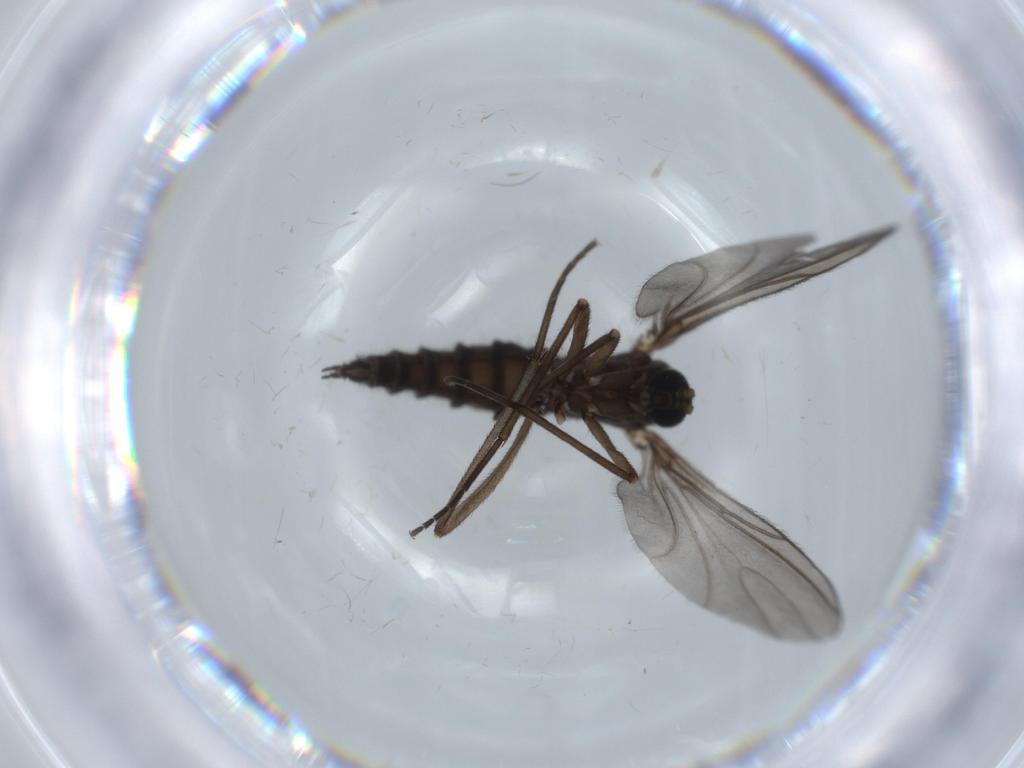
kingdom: Animalia
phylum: Arthropoda
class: Insecta
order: Diptera
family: Sciaridae
